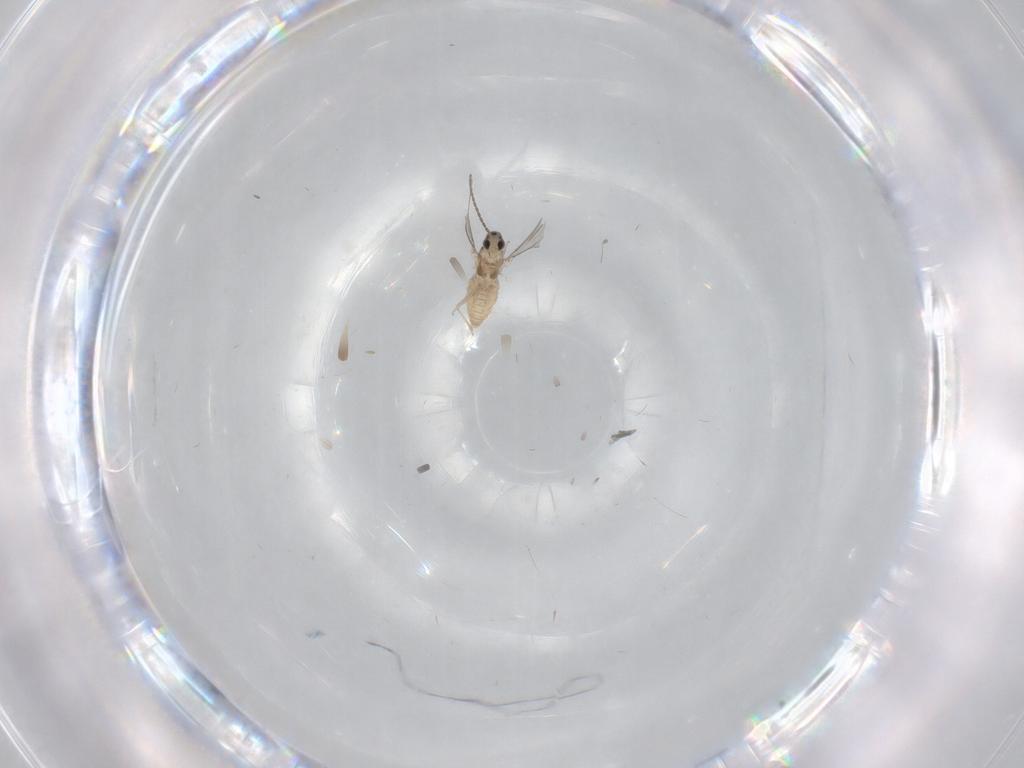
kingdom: Animalia
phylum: Arthropoda
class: Insecta
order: Diptera
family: Cecidomyiidae
